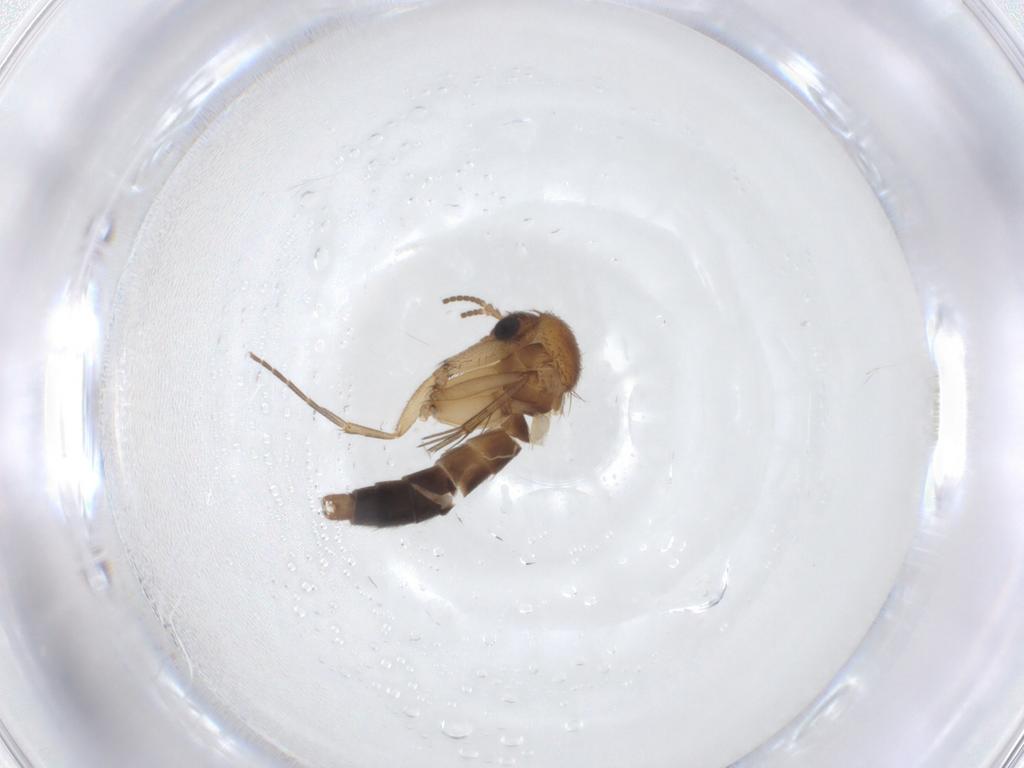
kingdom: Animalia
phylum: Arthropoda
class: Insecta
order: Diptera
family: Mycetophilidae
